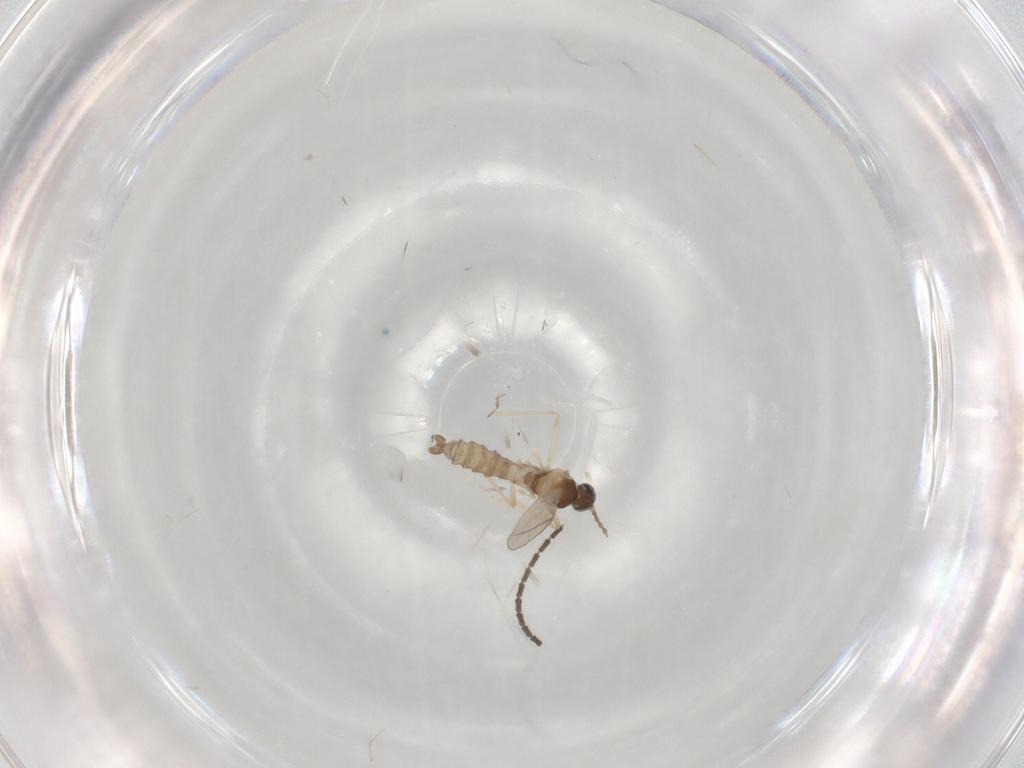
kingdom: Animalia
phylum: Arthropoda
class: Insecta
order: Diptera
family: Sciaridae
